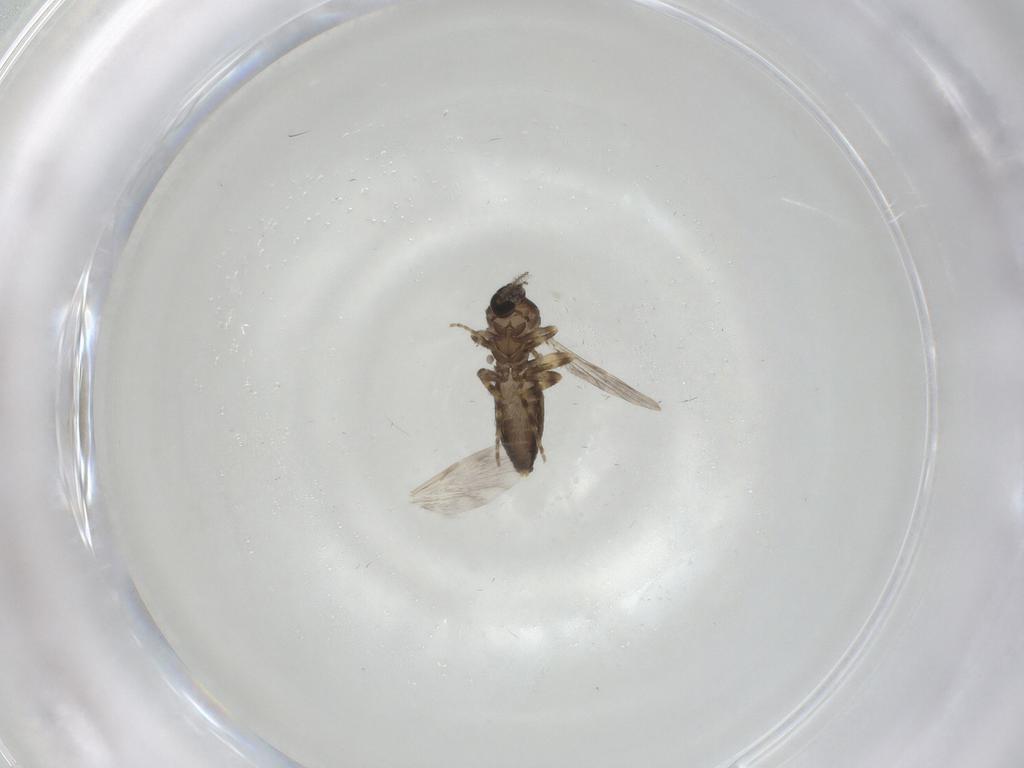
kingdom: Animalia
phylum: Arthropoda
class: Insecta
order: Diptera
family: Ceratopogonidae
